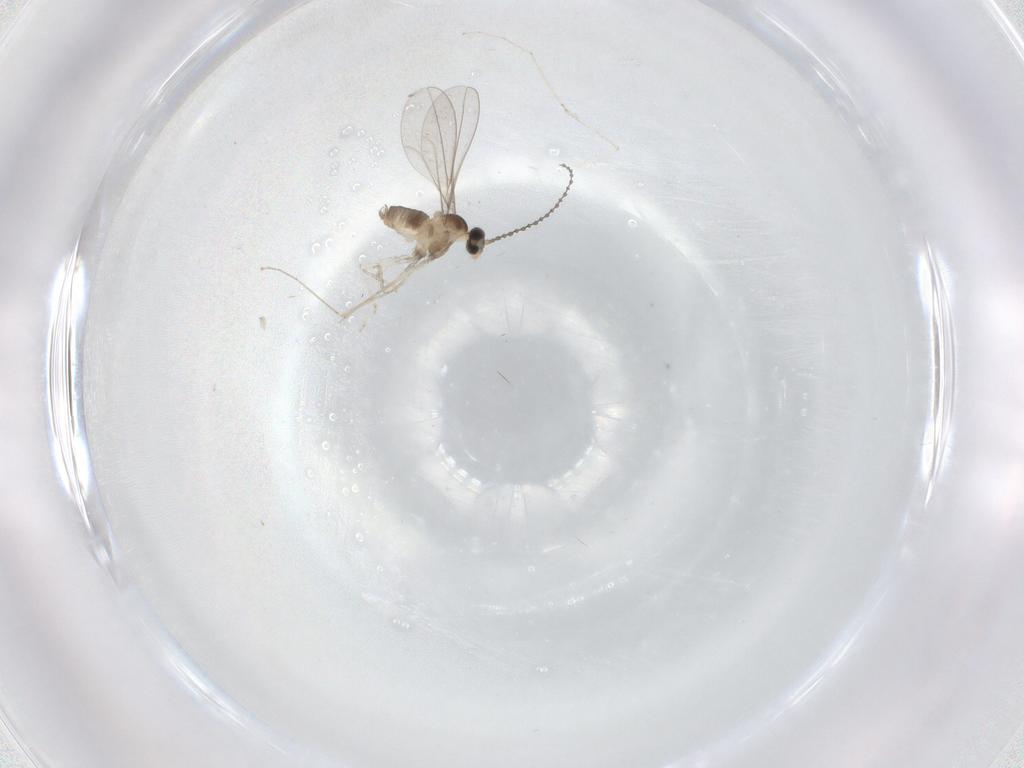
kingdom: Animalia
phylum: Arthropoda
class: Insecta
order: Diptera
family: Cecidomyiidae
